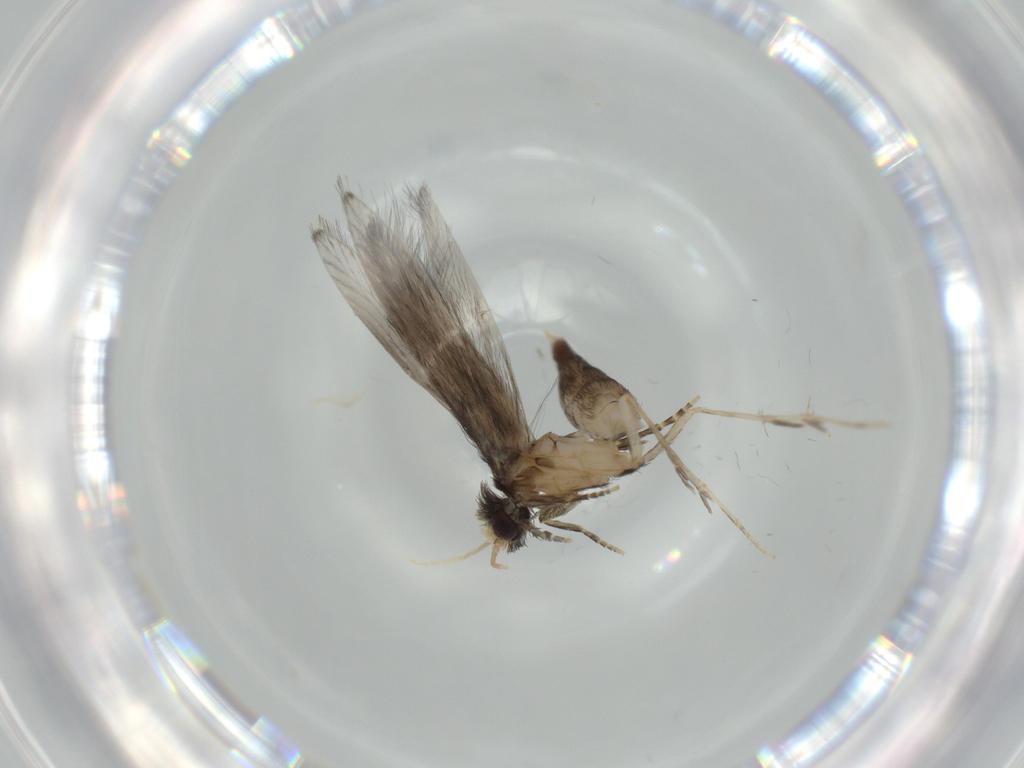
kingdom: Animalia
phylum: Arthropoda
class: Insecta
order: Trichoptera
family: Hydroptilidae
